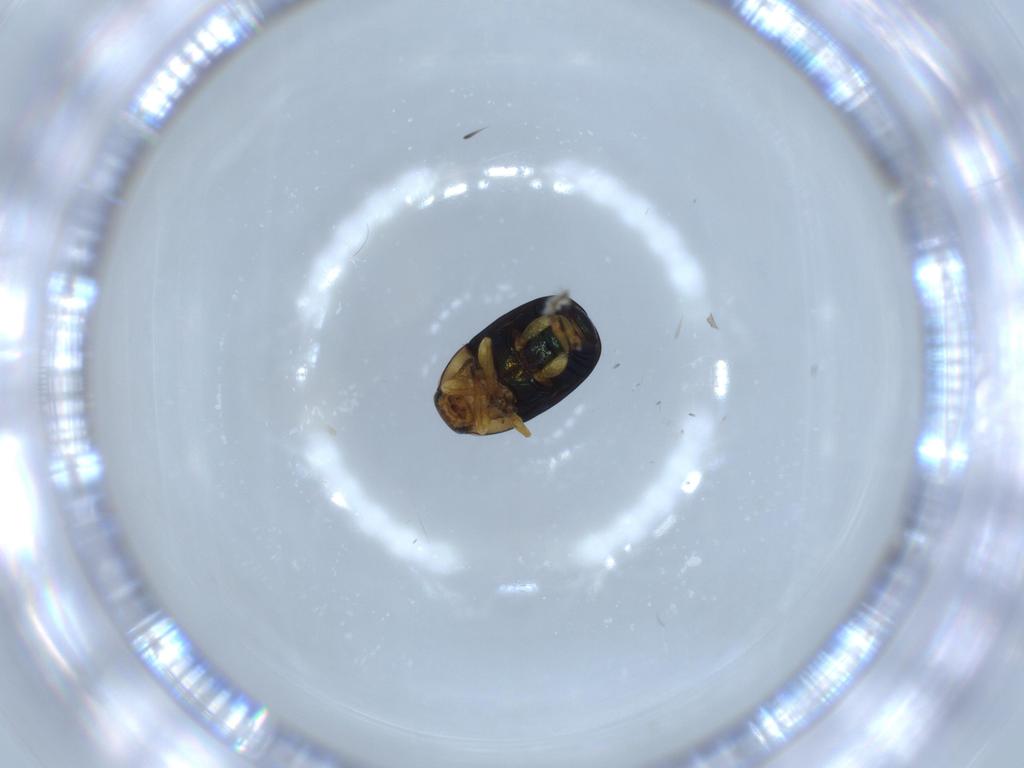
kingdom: Animalia
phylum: Arthropoda
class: Insecta
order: Coleoptera
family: Chrysomelidae
